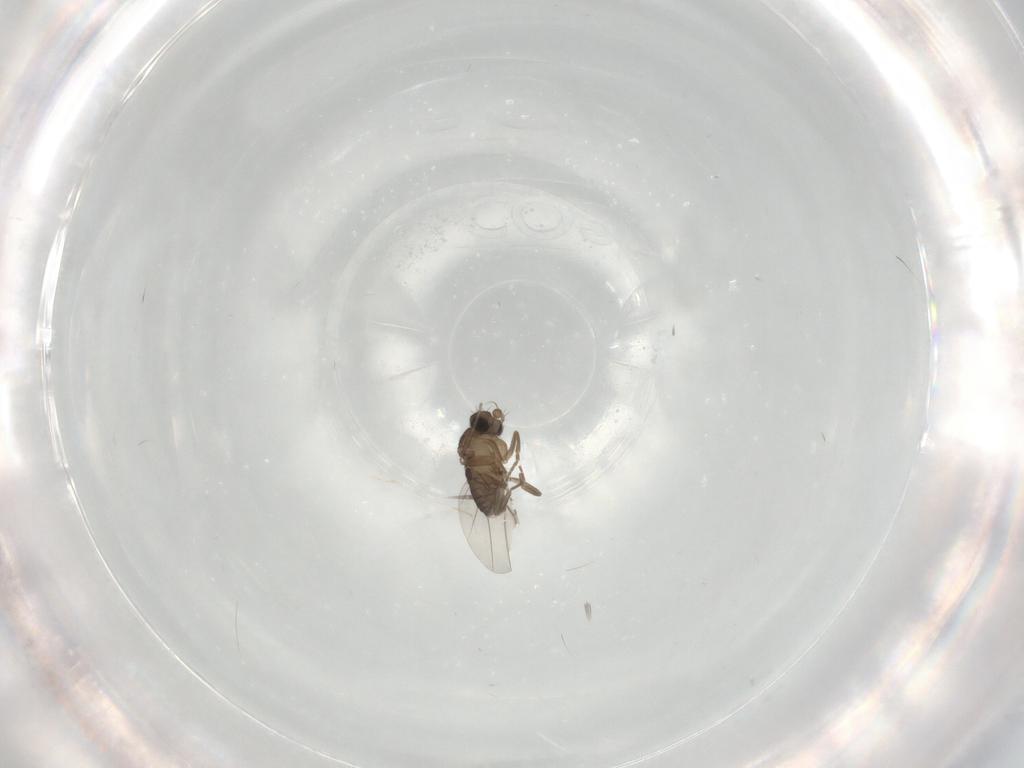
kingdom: Animalia
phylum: Arthropoda
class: Insecta
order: Diptera
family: Phoridae
